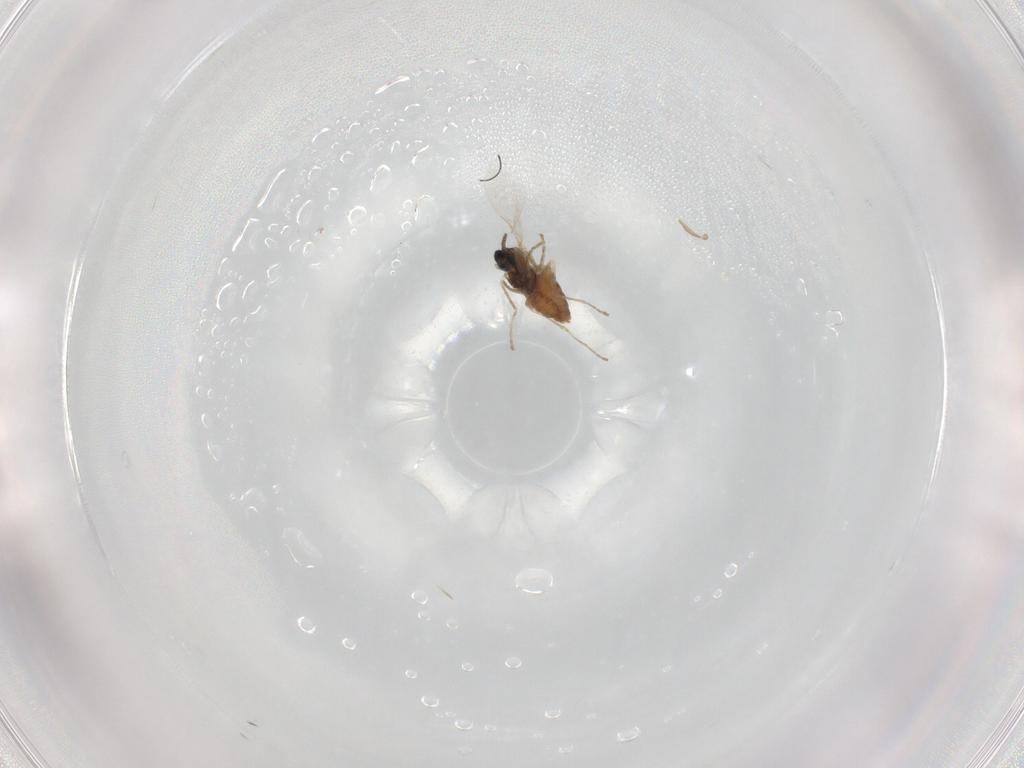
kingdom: Animalia
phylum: Arthropoda
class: Insecta
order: Diptera
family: Cecidomyiidae
